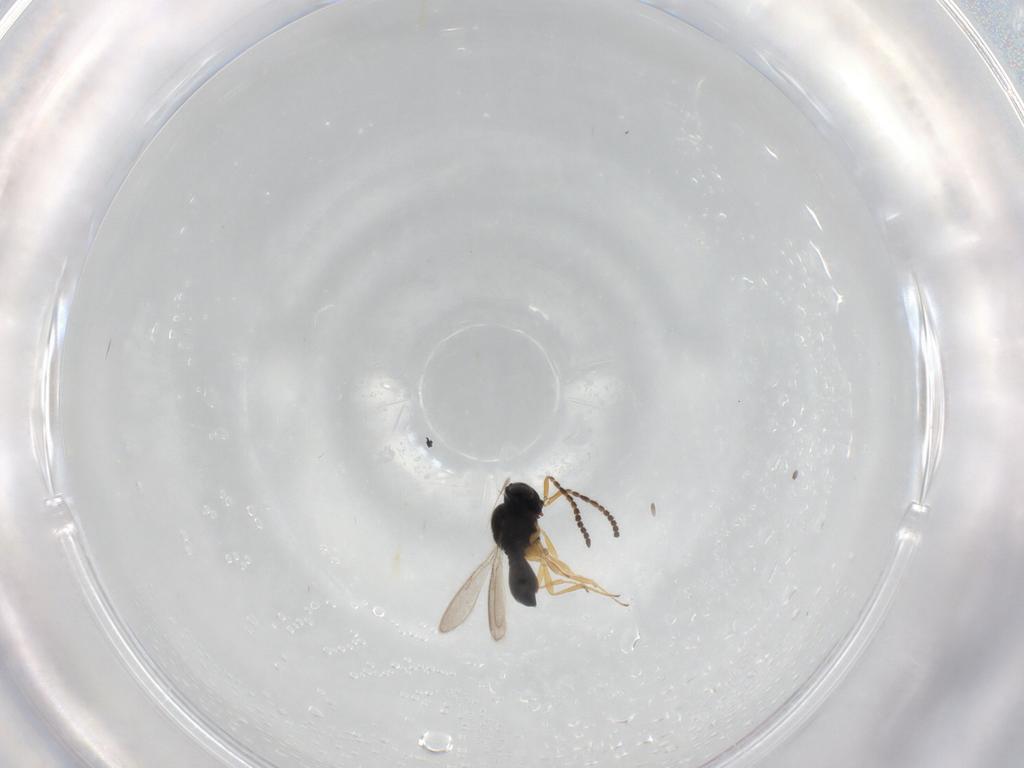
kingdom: Animalia
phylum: Arthropoda
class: Insecta
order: Hymenoptera
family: Scelionidae
